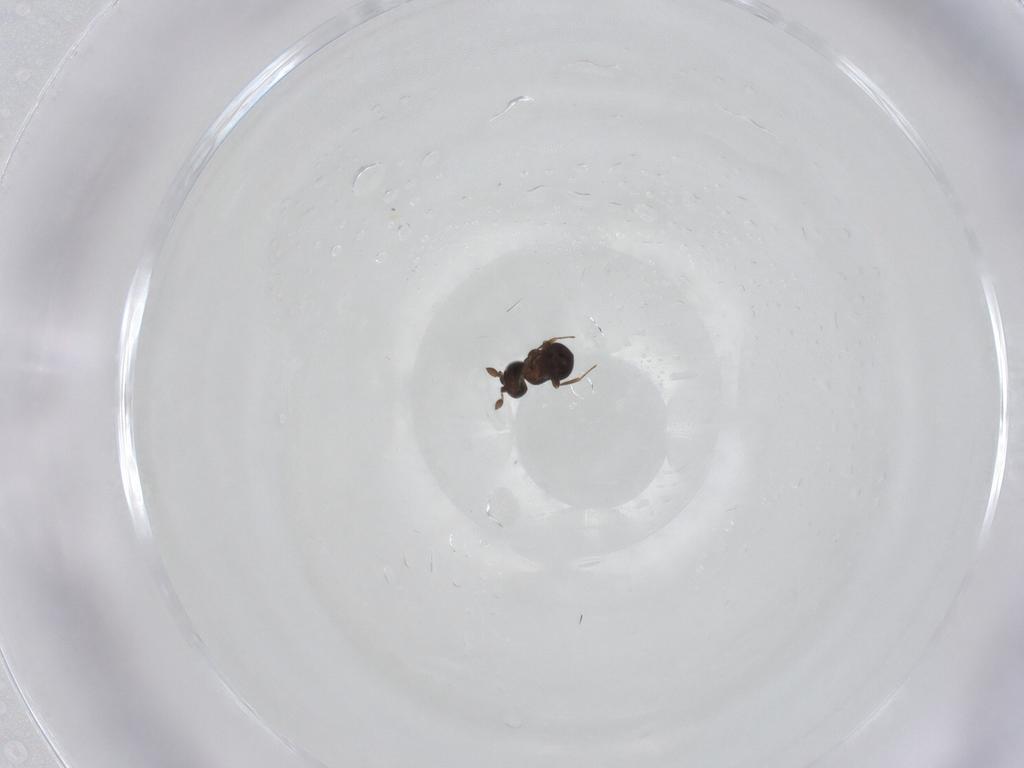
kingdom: Animalia
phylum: Arthropoda
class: Insecta
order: Hymenoptera
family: Scelionidae
